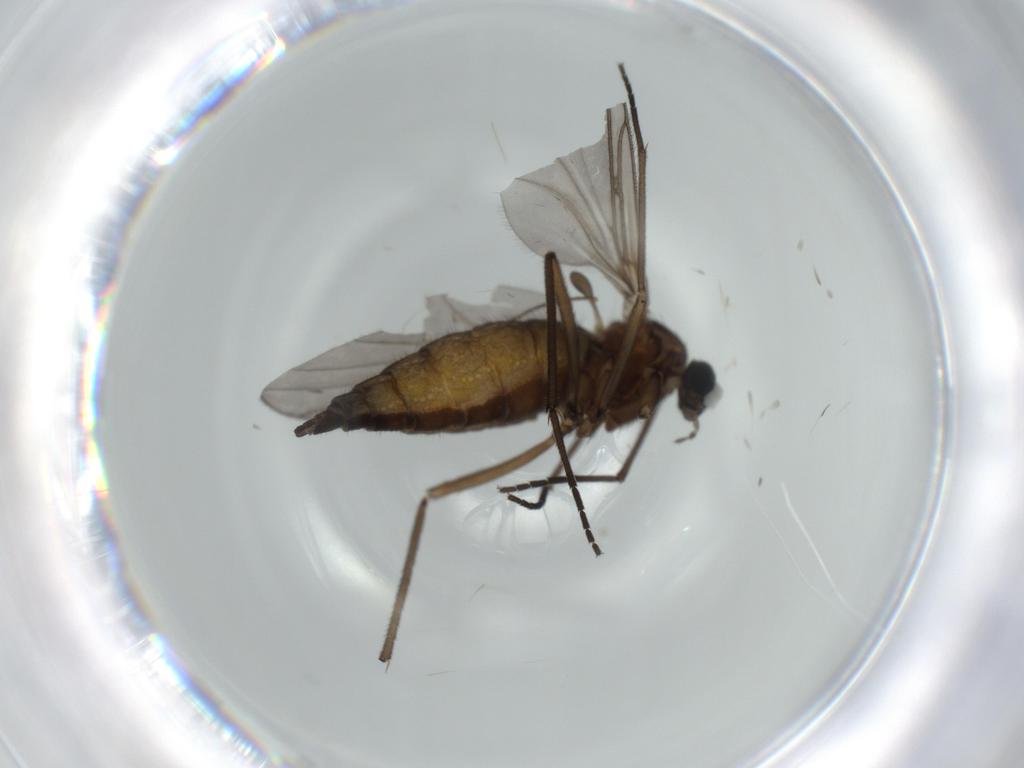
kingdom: Animalia
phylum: Arthropoda
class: Insecta
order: Diptera
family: Sciaridae
